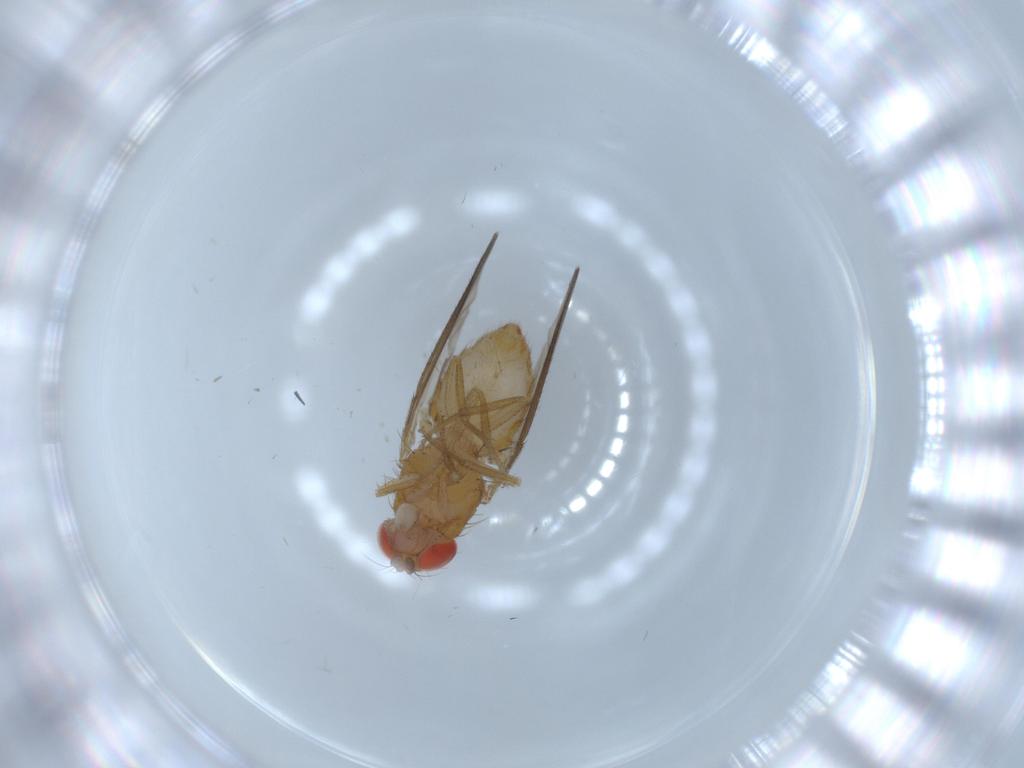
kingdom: Animalia
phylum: Arthropoda
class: Insecta
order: Diptera
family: Drosophilidae
